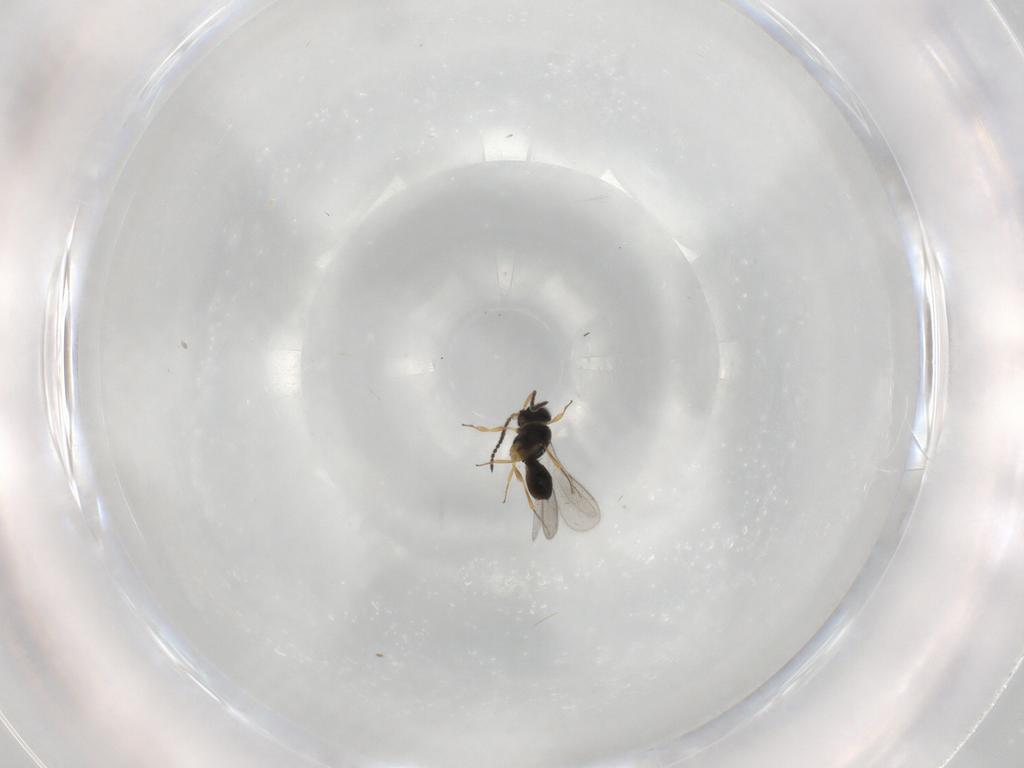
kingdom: Animalia
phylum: Arthropoda
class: Insecta
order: Hymenoptera
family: Scelionidae
